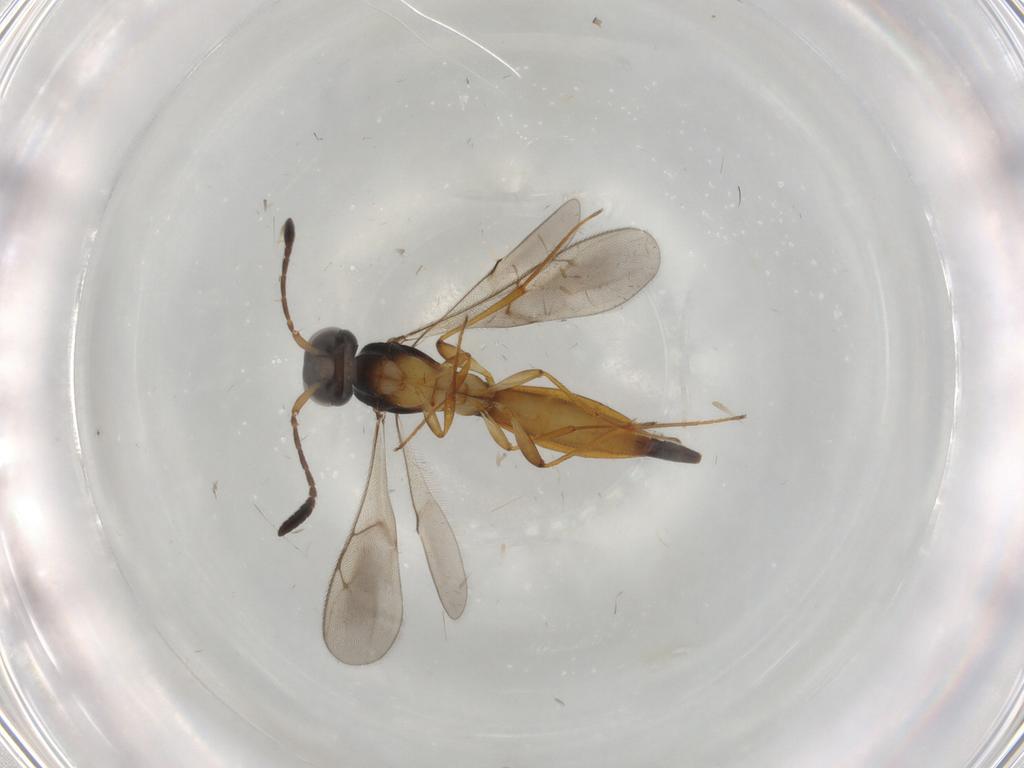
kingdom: Animalia
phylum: Arthropoda
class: Insecta
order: Hymenoptera
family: Scelionidae
